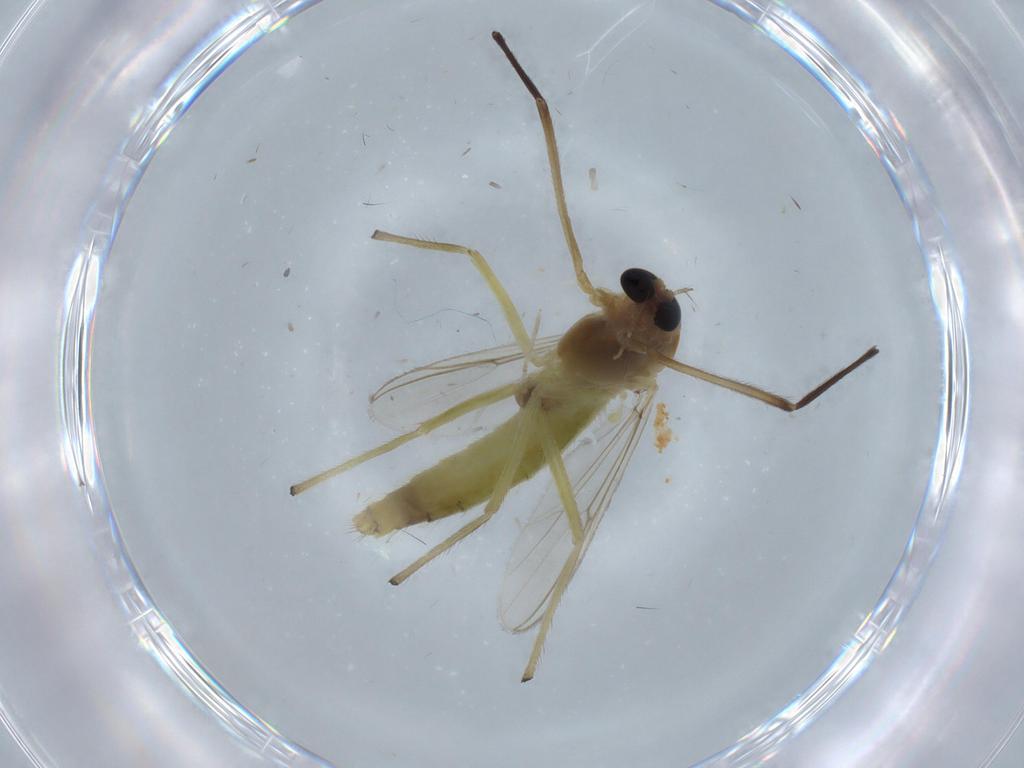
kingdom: Animalia
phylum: Arthropoda
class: Insecta
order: Diptera
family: Chironomidae
